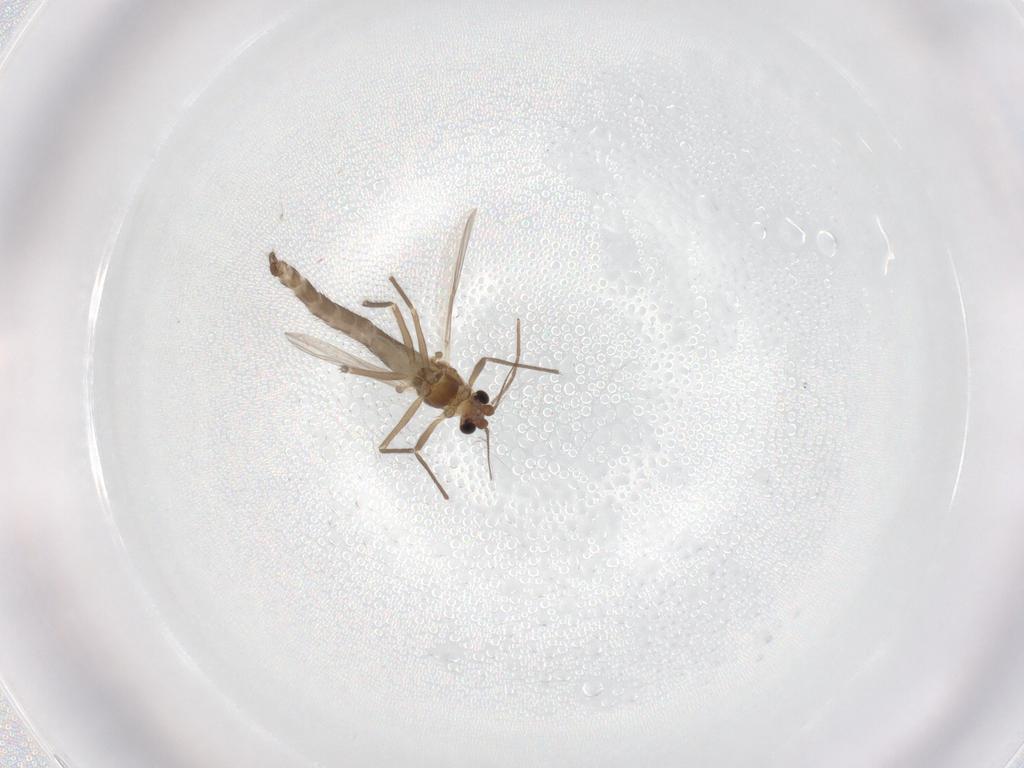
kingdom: Animalia
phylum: Arthropoda
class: Insecta
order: Diptera
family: Chironomidae
